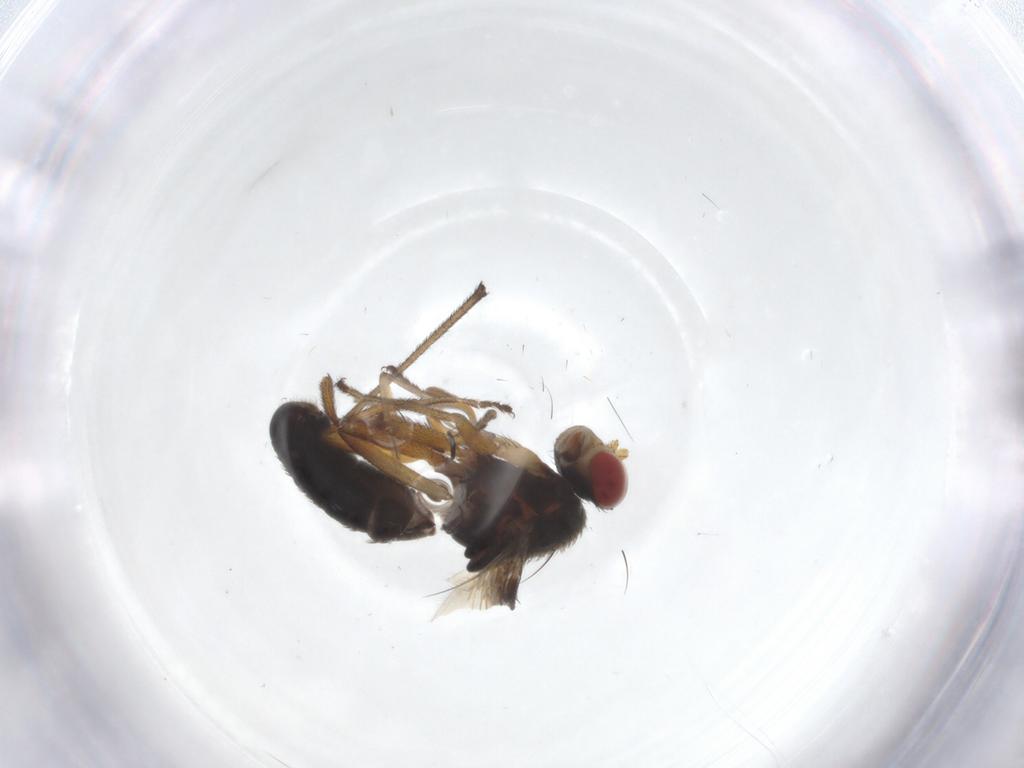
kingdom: Animalia
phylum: Arthropoda
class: Insecta
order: Diptera
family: Diastatidae
